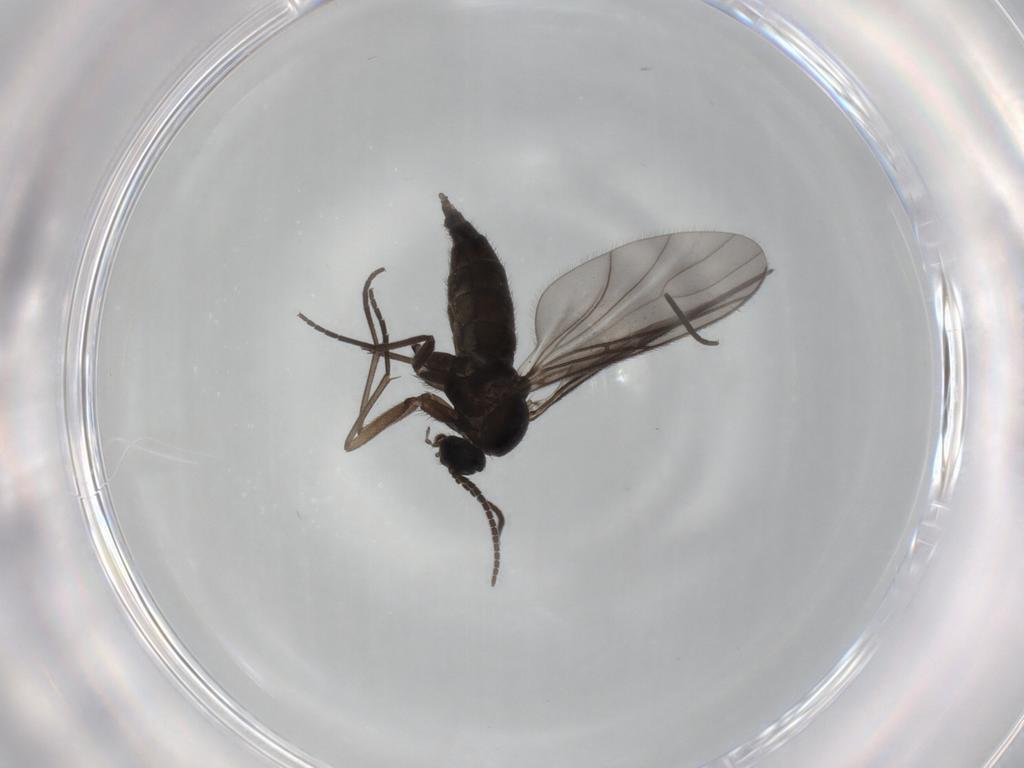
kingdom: Animalia
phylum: Arthropoda
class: Insecta
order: Diptera
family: Sciaridae
